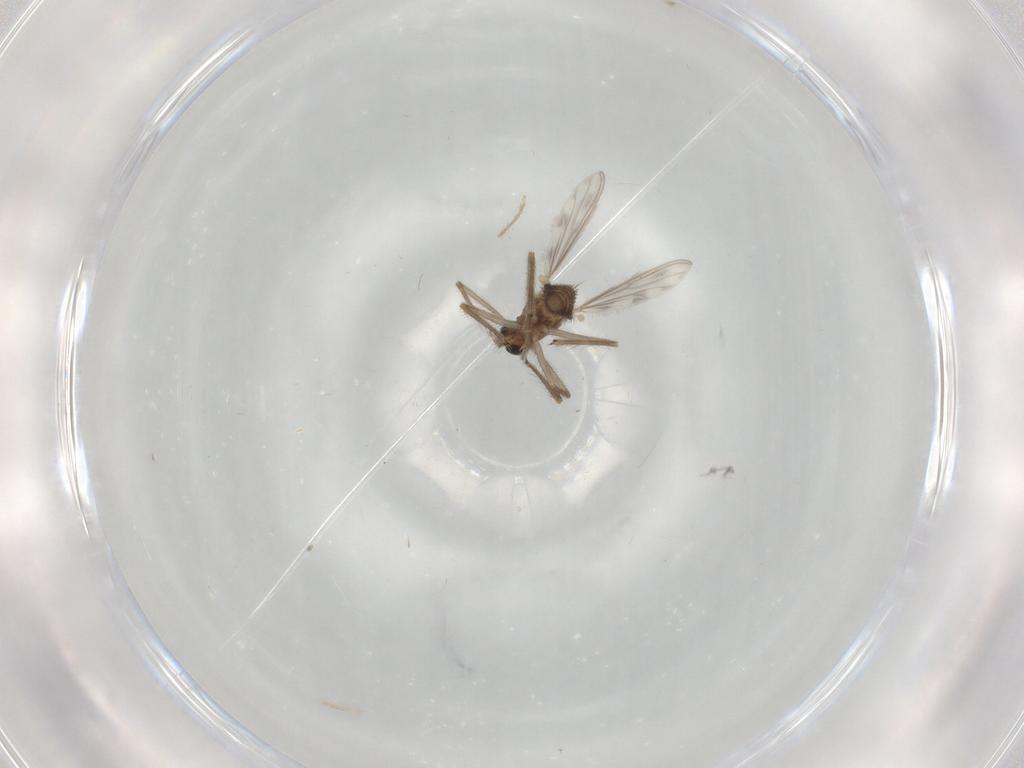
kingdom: Animalia
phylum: Arthropoda
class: Insecta
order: Diptera
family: Chironomidae
